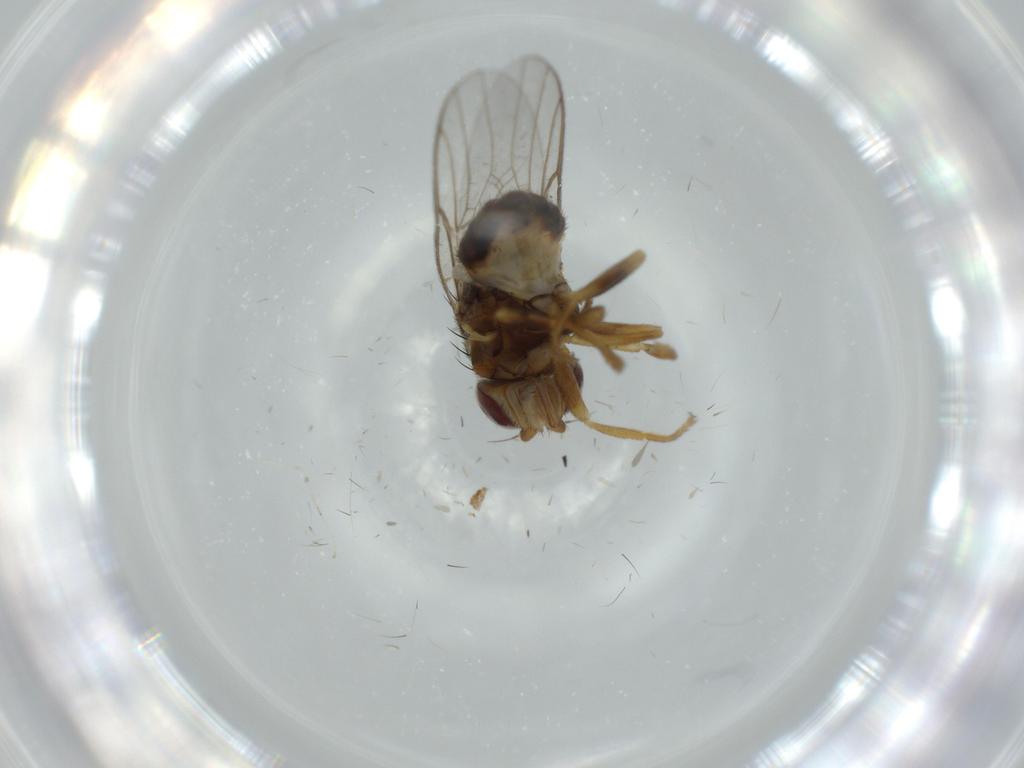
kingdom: Animalia
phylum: Arthropoda
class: Insecta
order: Diptera
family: Chloropidae
